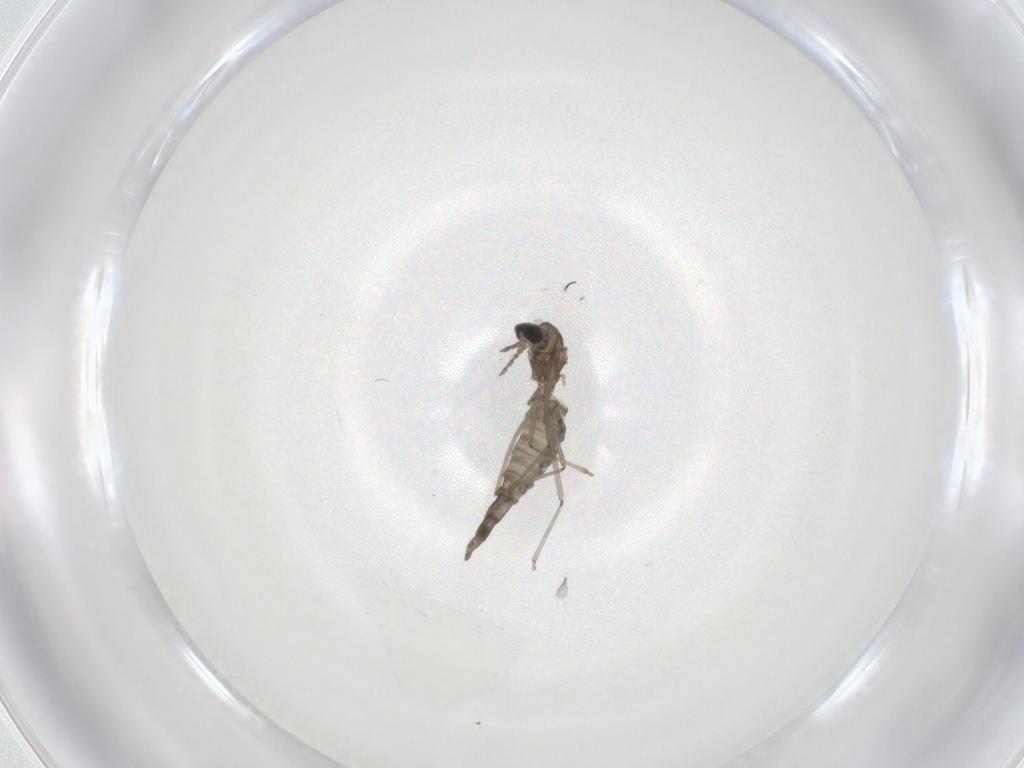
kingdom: Animalia
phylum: Arthropoda
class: Insecta
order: Diptera
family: Cecidomyiidae
